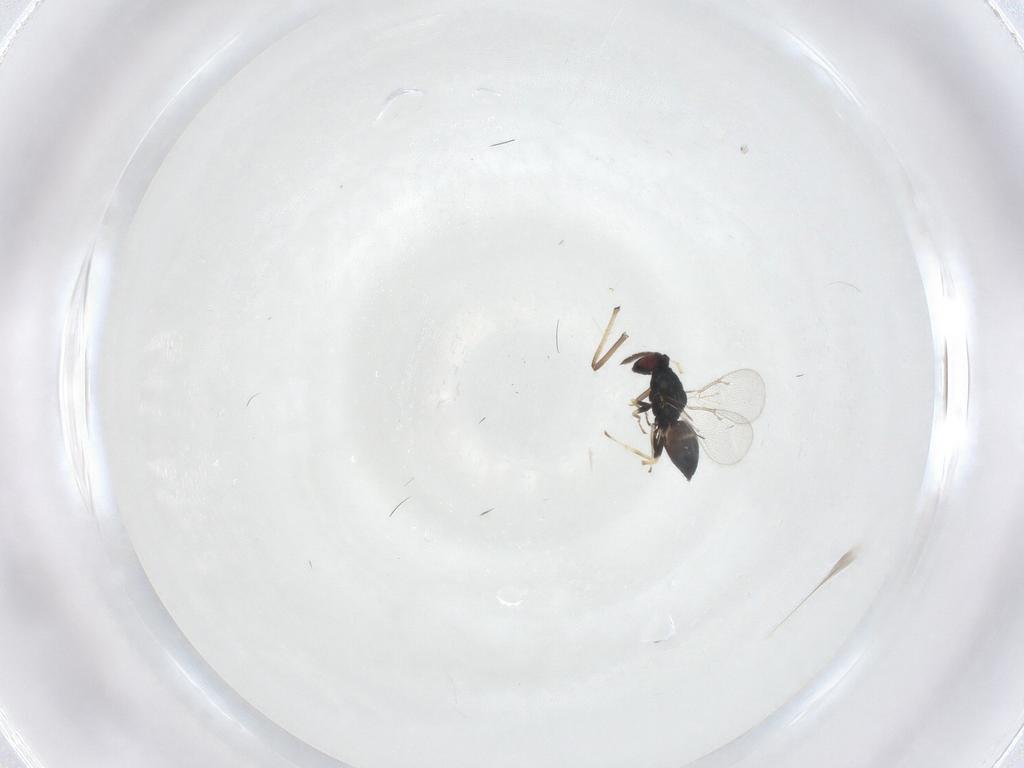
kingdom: Animalia
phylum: Arthropoda
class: Insecta
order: Hymenoptera
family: Eulophidae
